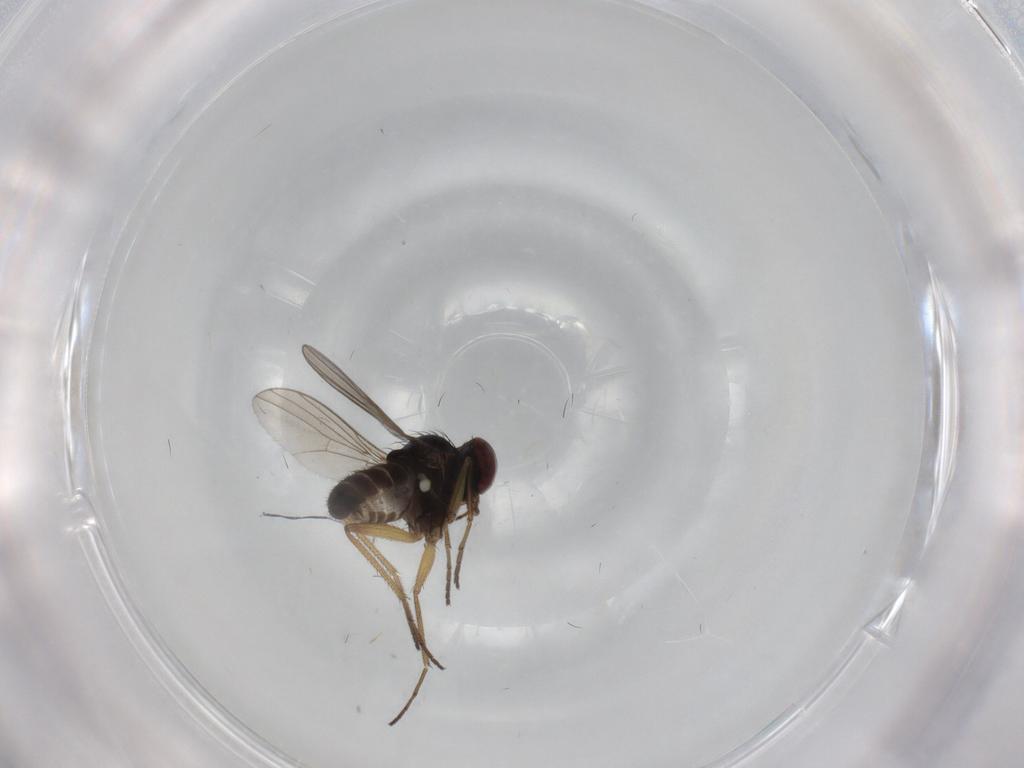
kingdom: Animalia
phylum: Arthropoda
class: Insecta
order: Diptera
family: Dolichopodidae
